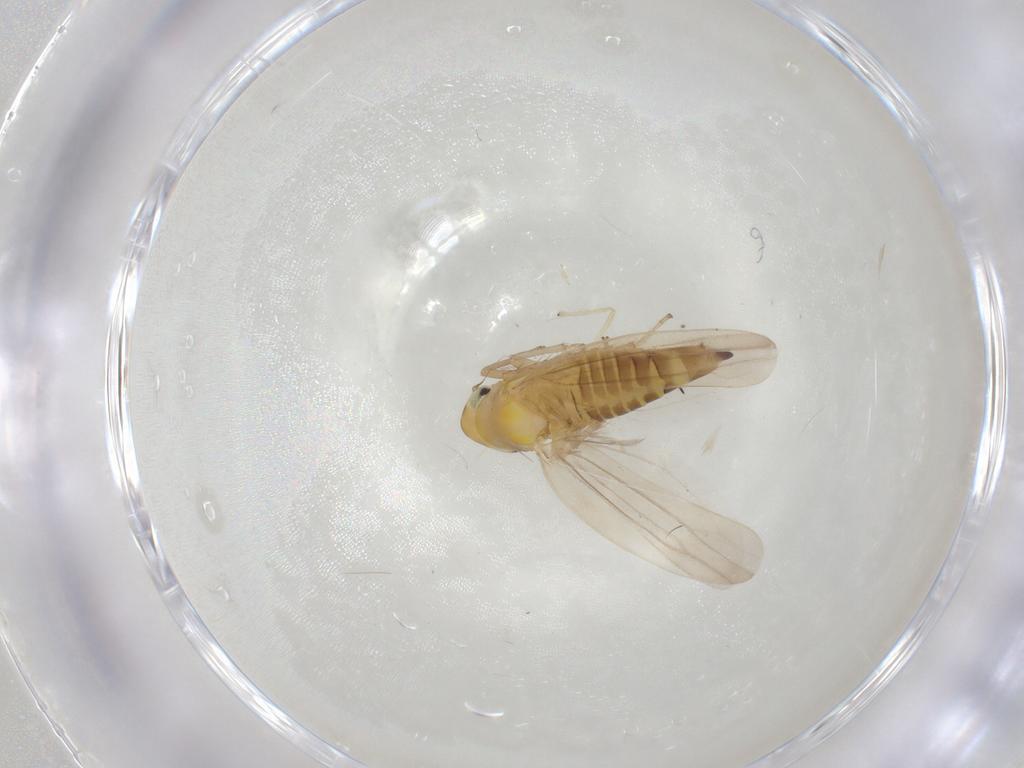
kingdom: Animalia
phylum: Arthropoda
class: Insecta
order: Hemiptera
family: Cicadellidae
